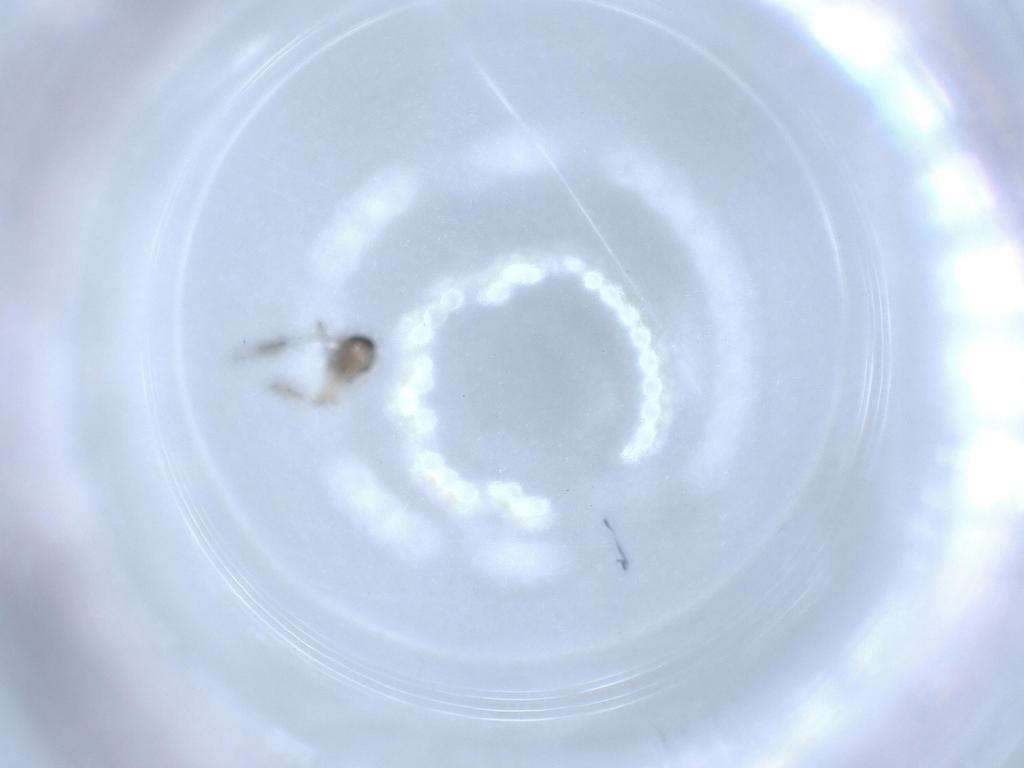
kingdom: Animalia
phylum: Arthropoda
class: Insecta
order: Diptera
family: Sciaridae
